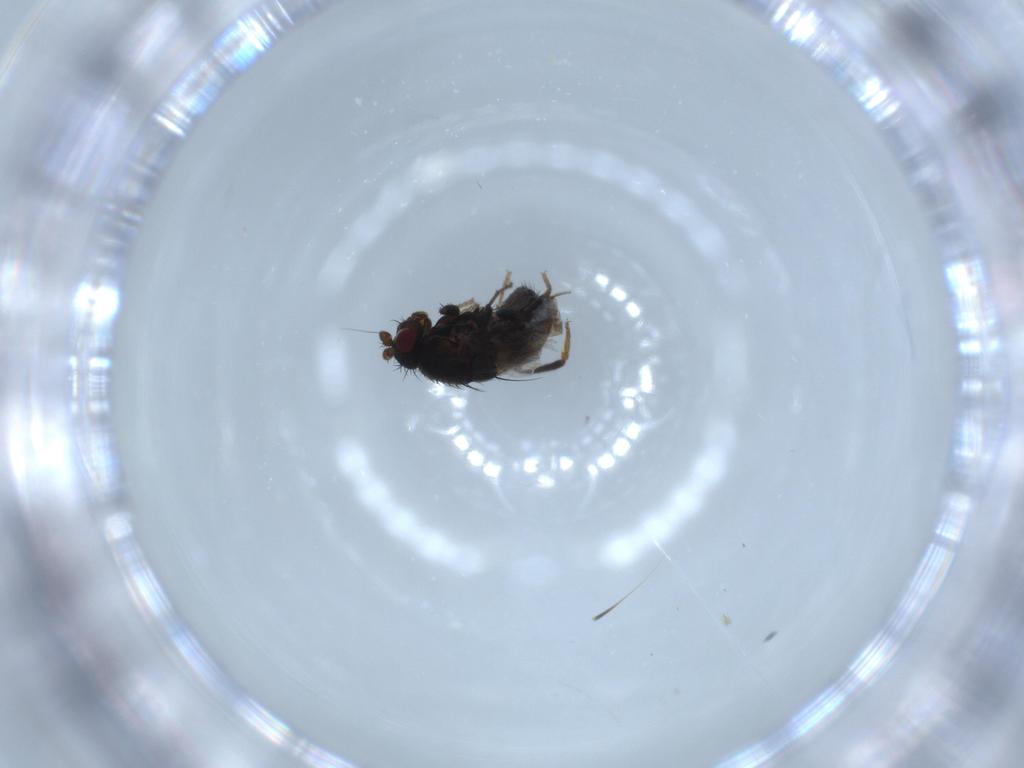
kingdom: Animalia
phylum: Arthropoda
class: Insecta
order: Diptera
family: Sphaeroceridae
